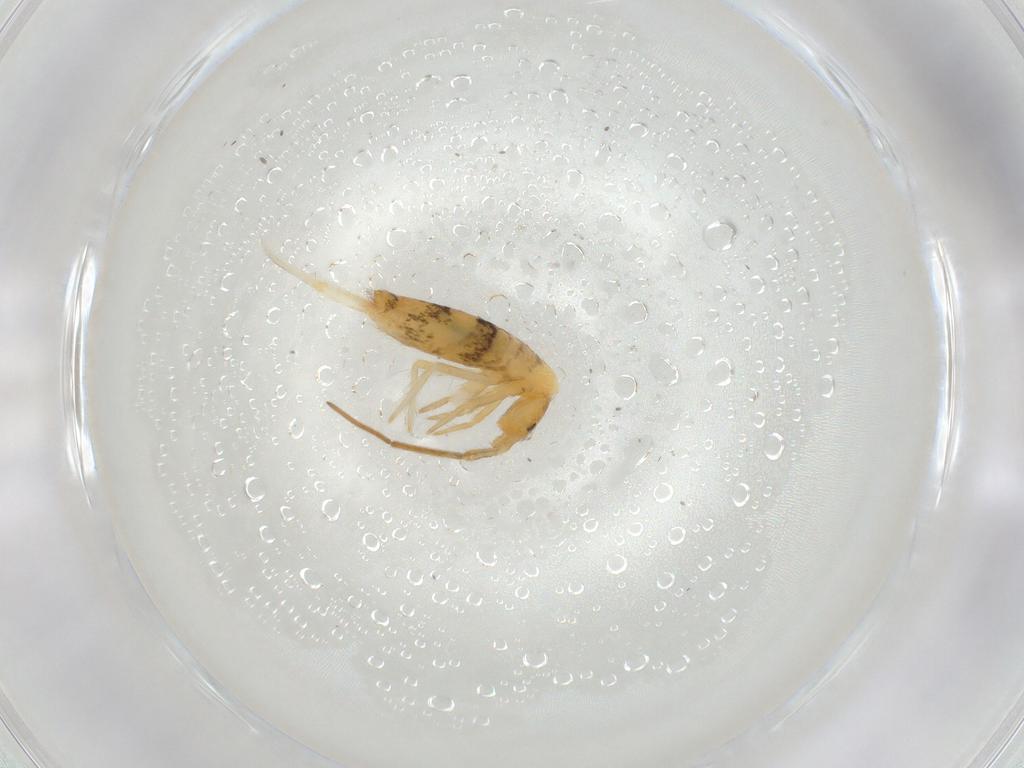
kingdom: Animalia
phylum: Arthropoda
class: Collembola
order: Entomobryomorpha
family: Entomobryidae
